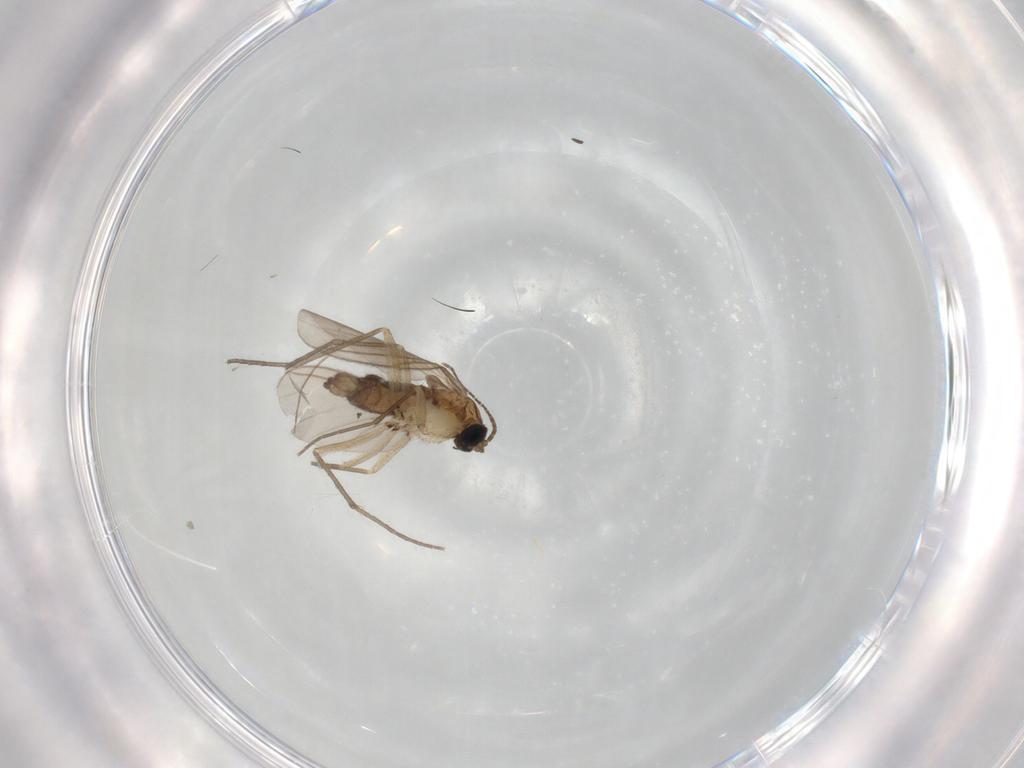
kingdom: Animalia
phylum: Arthropoda
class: Insecta
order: Diptera
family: Sciaridae
